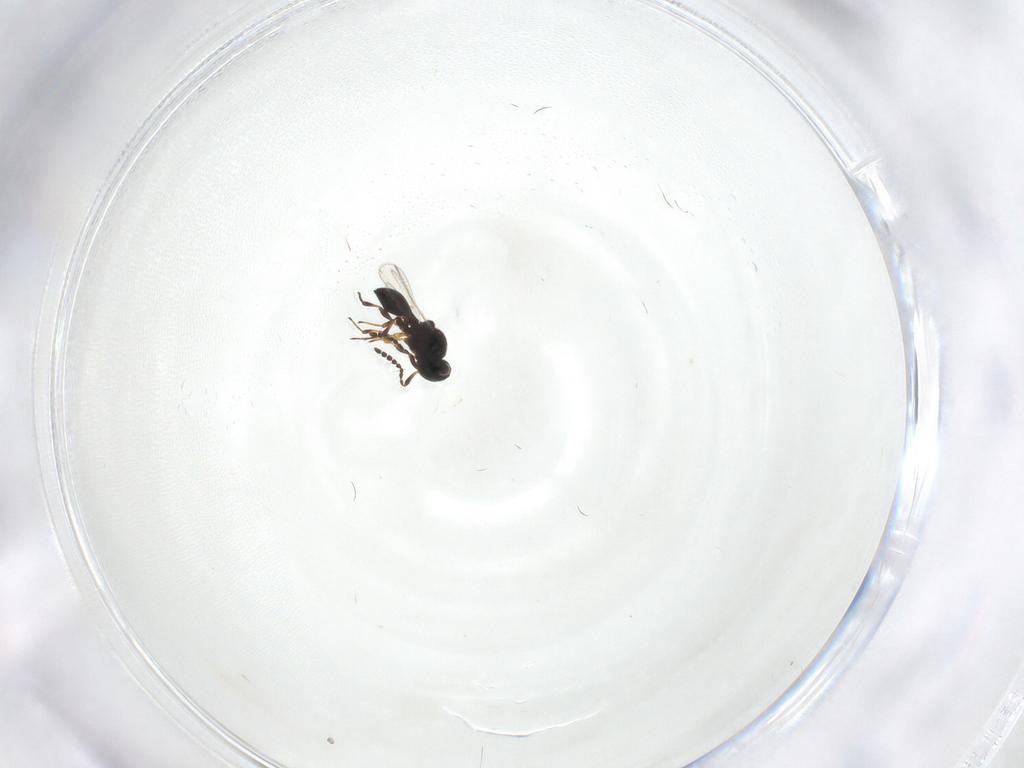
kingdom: Animalia
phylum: Arthropoda
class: Insecta
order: Hymenoptera
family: Platygastridae
